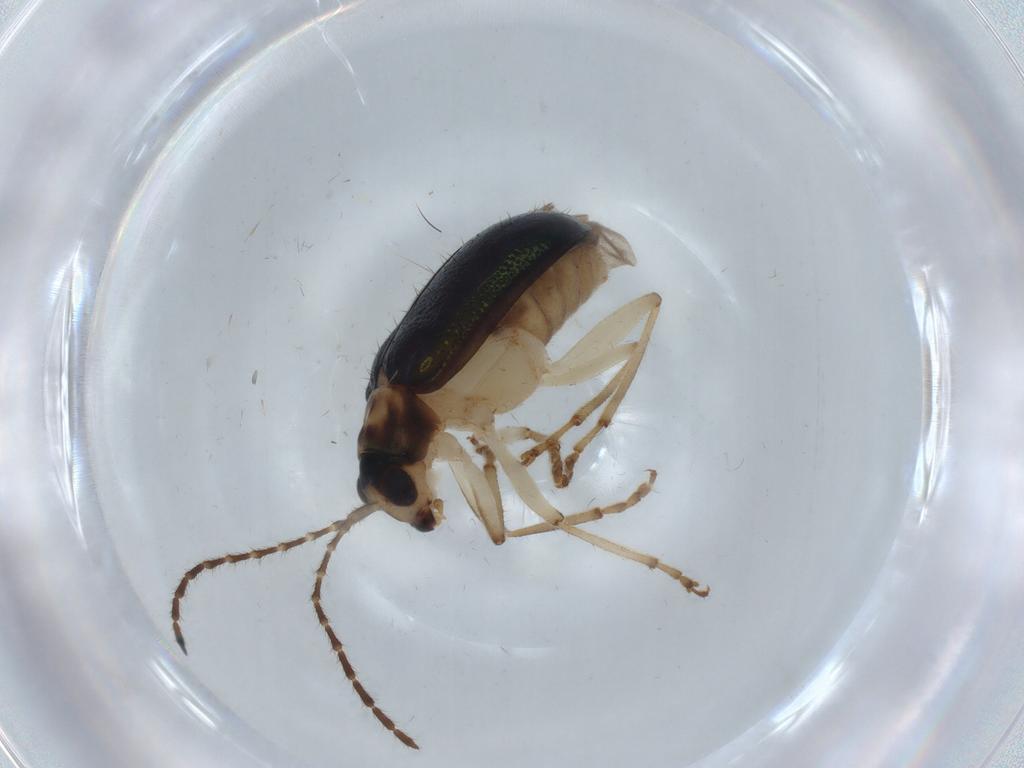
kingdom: Animalia
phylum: Arthropoda
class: Insecta
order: Coleoptera
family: Chrysomelidae
